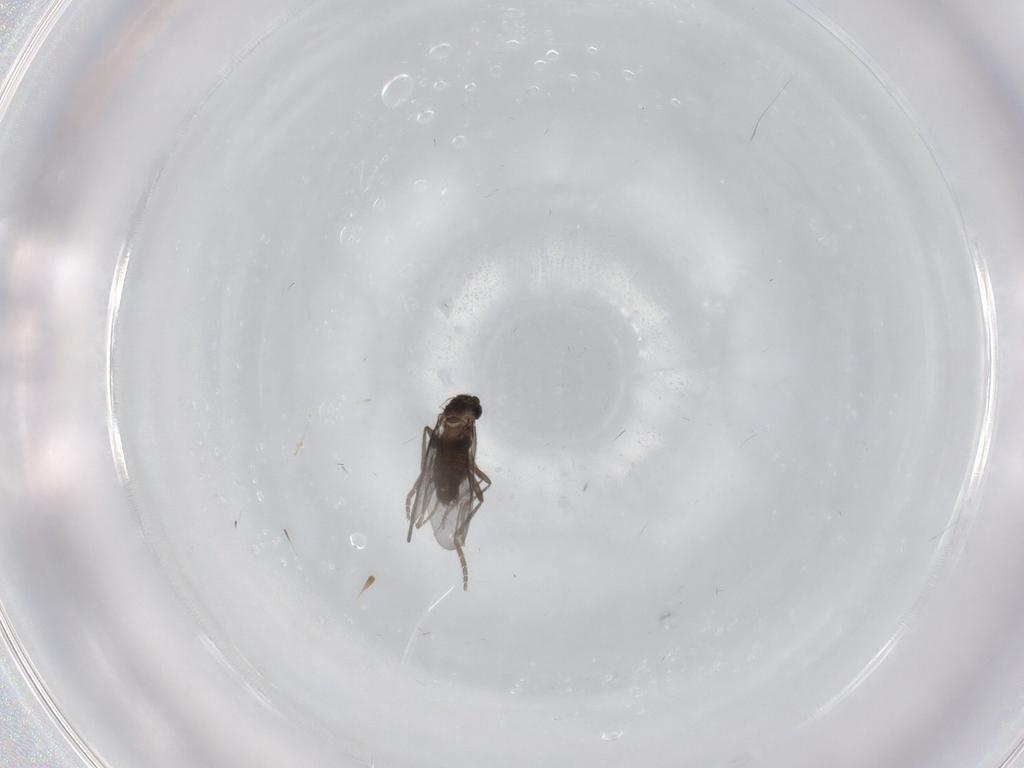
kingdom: Animalia
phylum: Arthropoda
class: Insecta
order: Diptera
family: Phoridae
